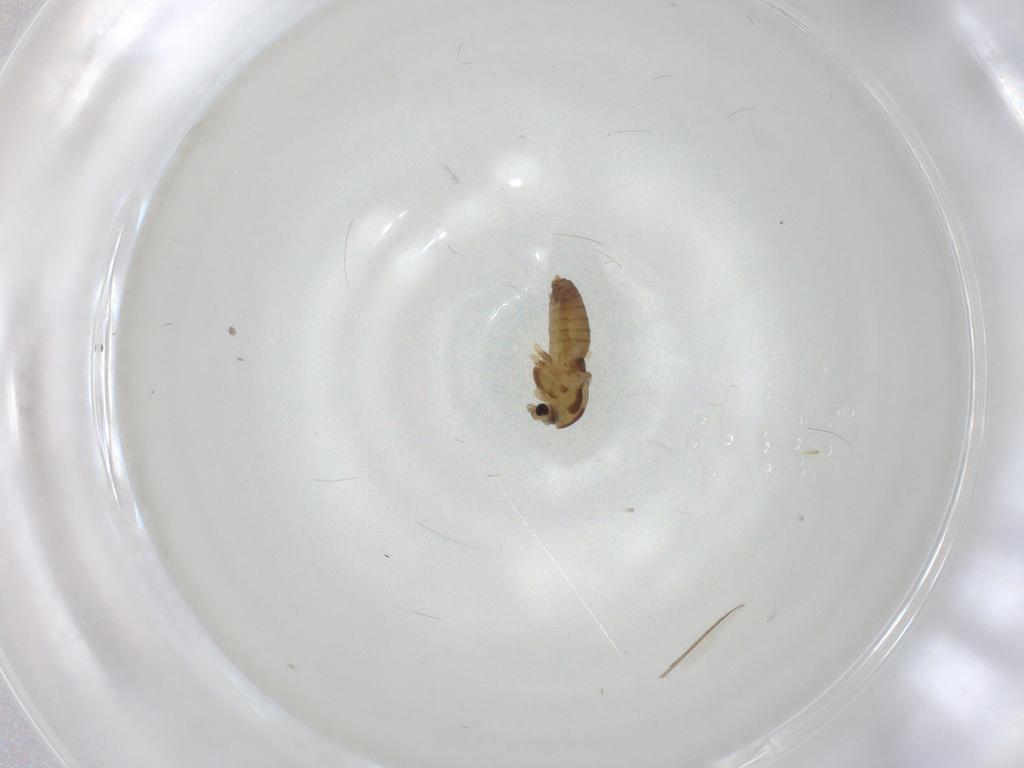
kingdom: Animalia
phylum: Arthropoda
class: Insecta
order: Diptera
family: Chironomidae
